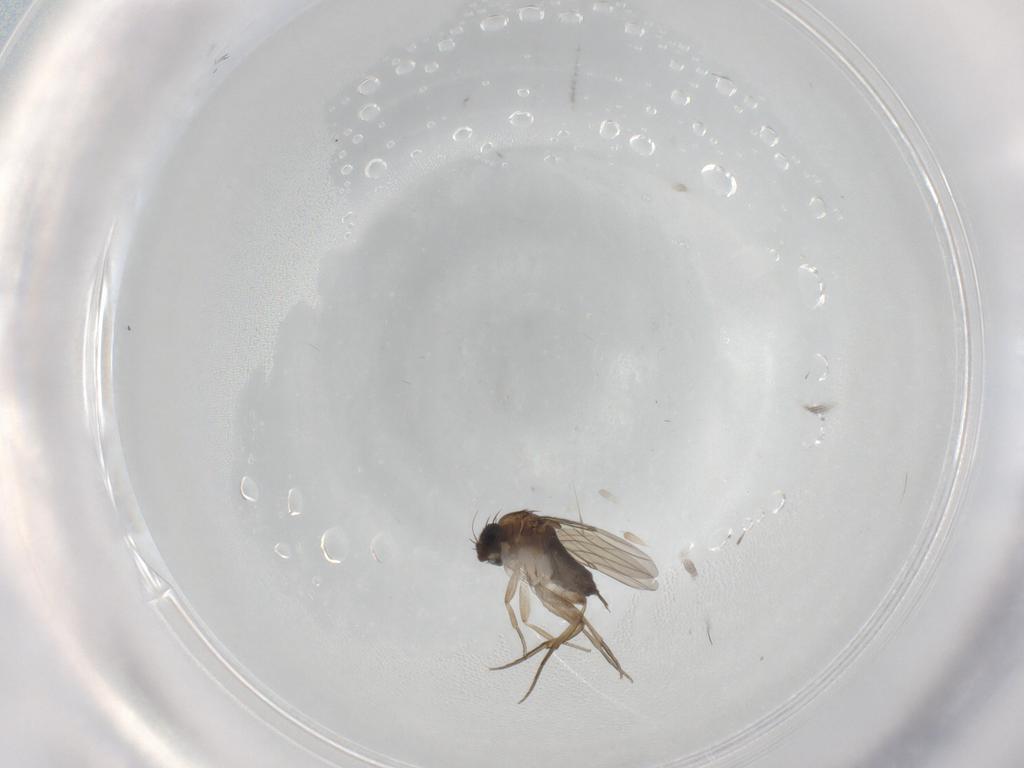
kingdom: Animalia
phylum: Arthropoda
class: Insecta
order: Diptera
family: Phoridae
